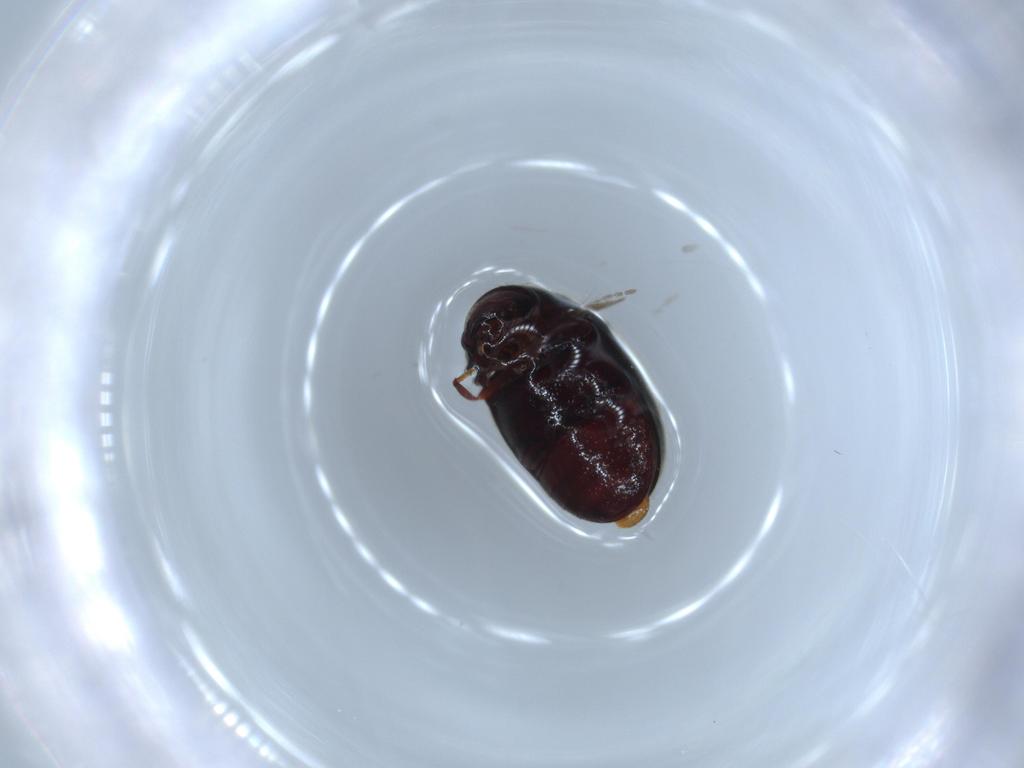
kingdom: Animalia
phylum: Arthropoda
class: Insecta
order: Coleoptera
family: Ptinidae
